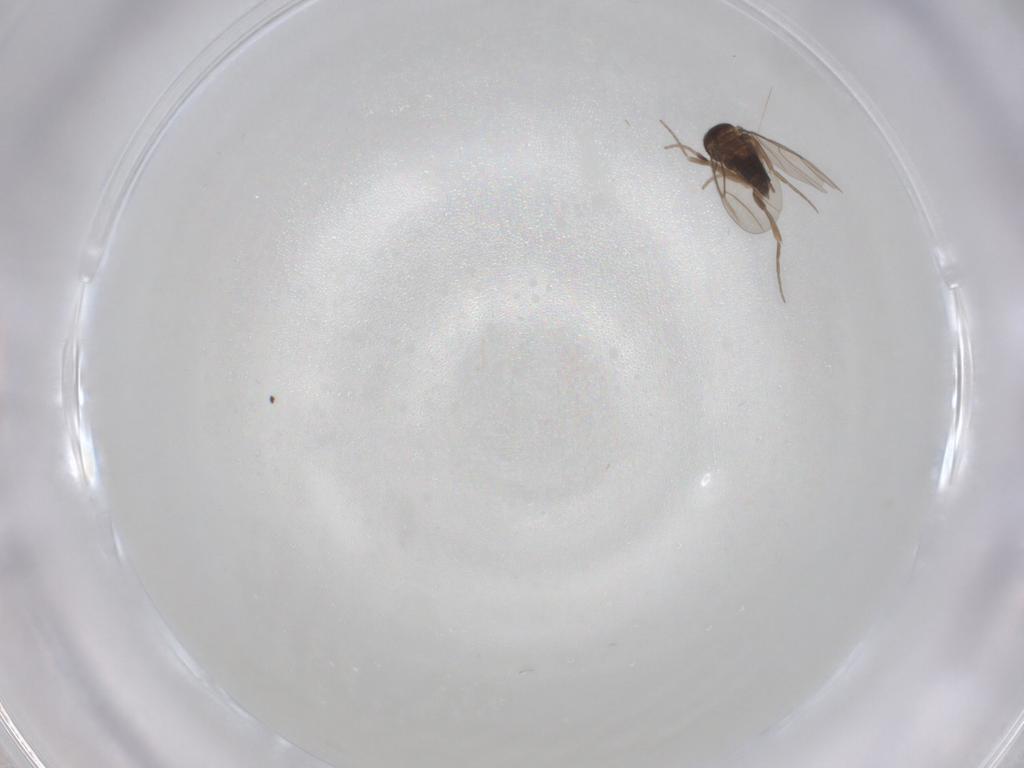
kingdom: Animalia
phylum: Arthropoda
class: Insecta
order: Diptera
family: Phoridae
